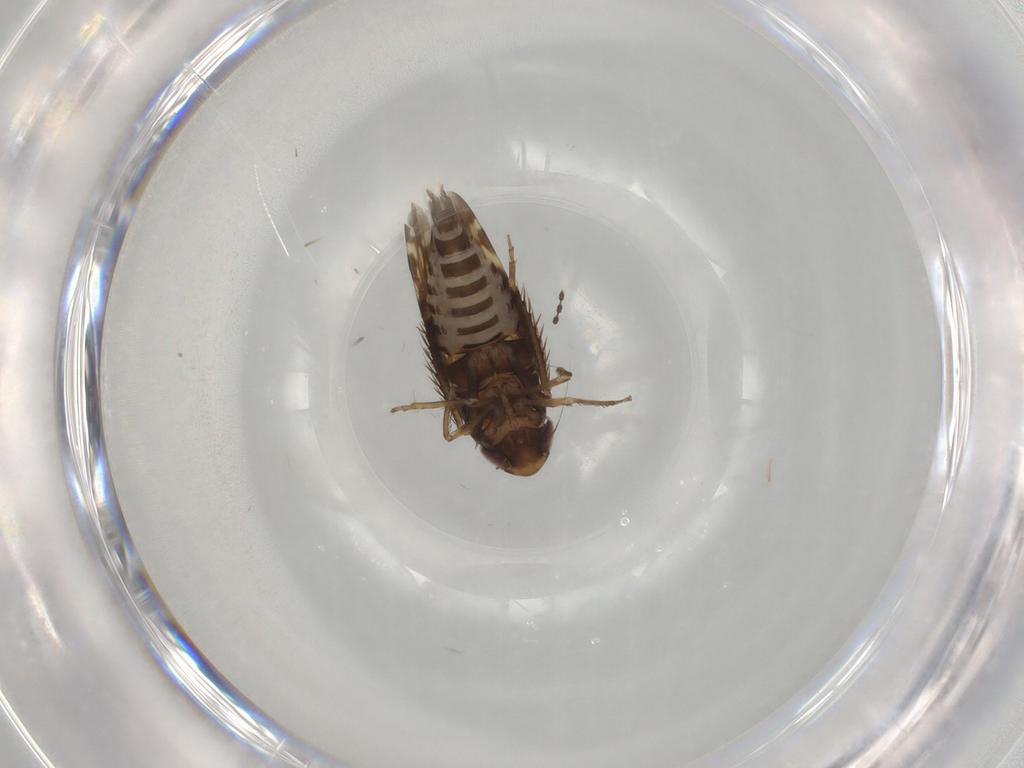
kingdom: Animalia
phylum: Arthropoda
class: Insecta
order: Hemiptera
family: Cicadellidae
